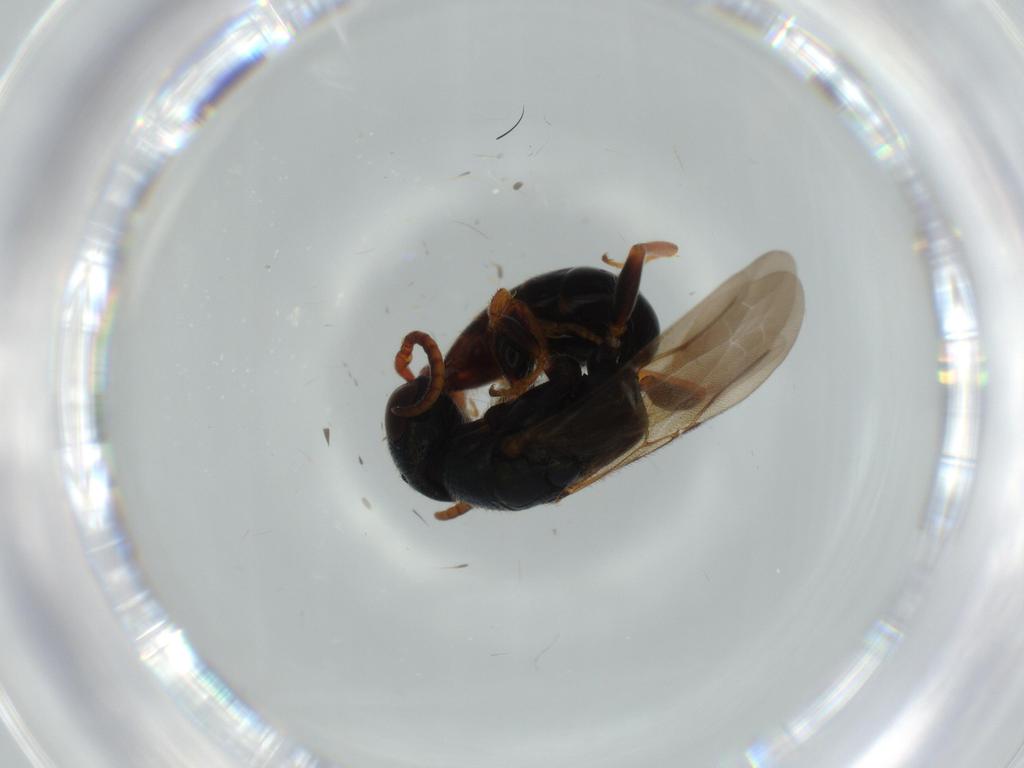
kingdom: Animalia
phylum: Arthropoda
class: Insecta
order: Hymenoptera
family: Bethylidae
